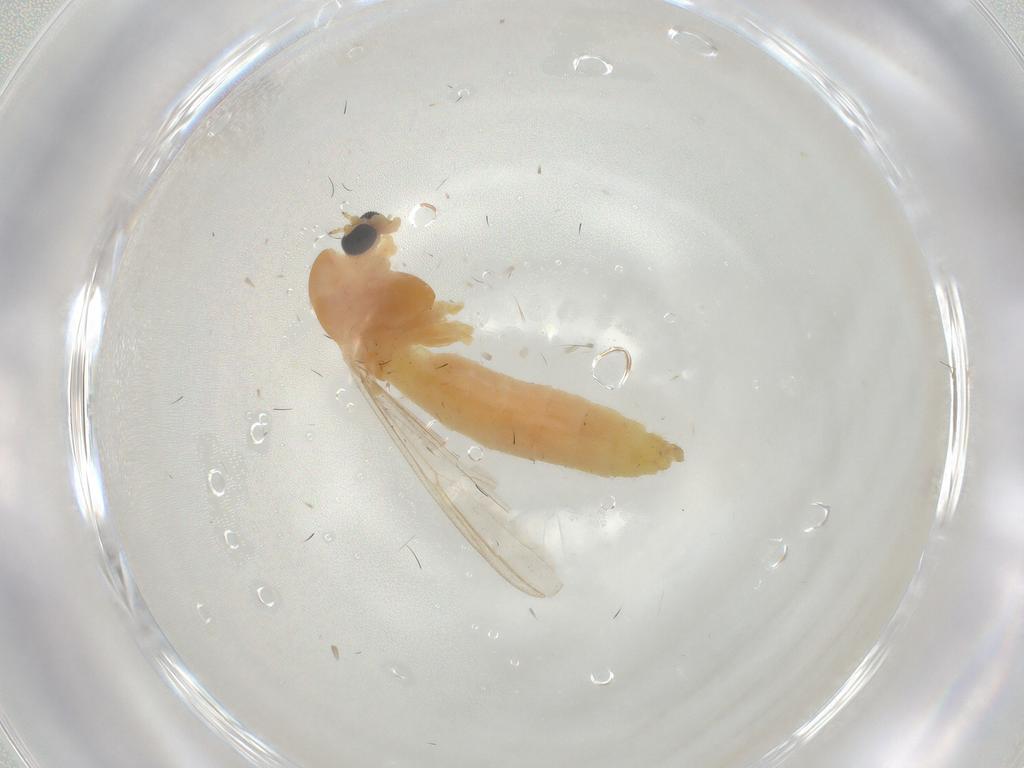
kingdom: Animalia
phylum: Arthropoda
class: Insecta
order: Diptera
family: Chironomidae
